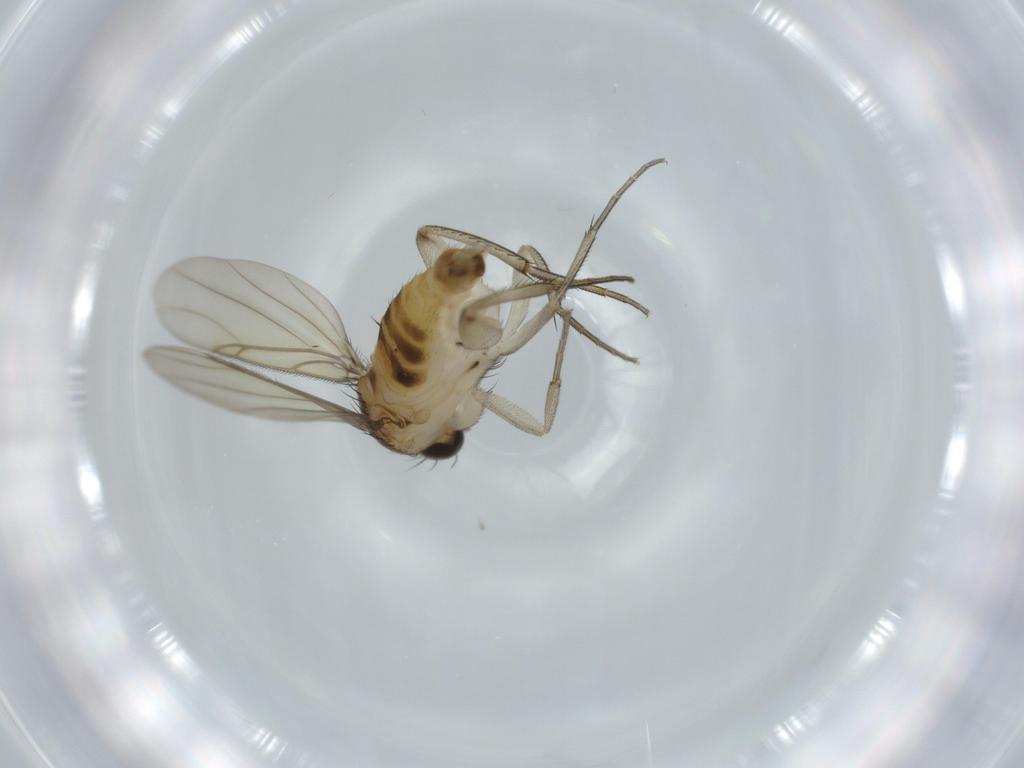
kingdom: Animalia
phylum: Arthropoda
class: Insecta
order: Diptera
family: Phoridae
